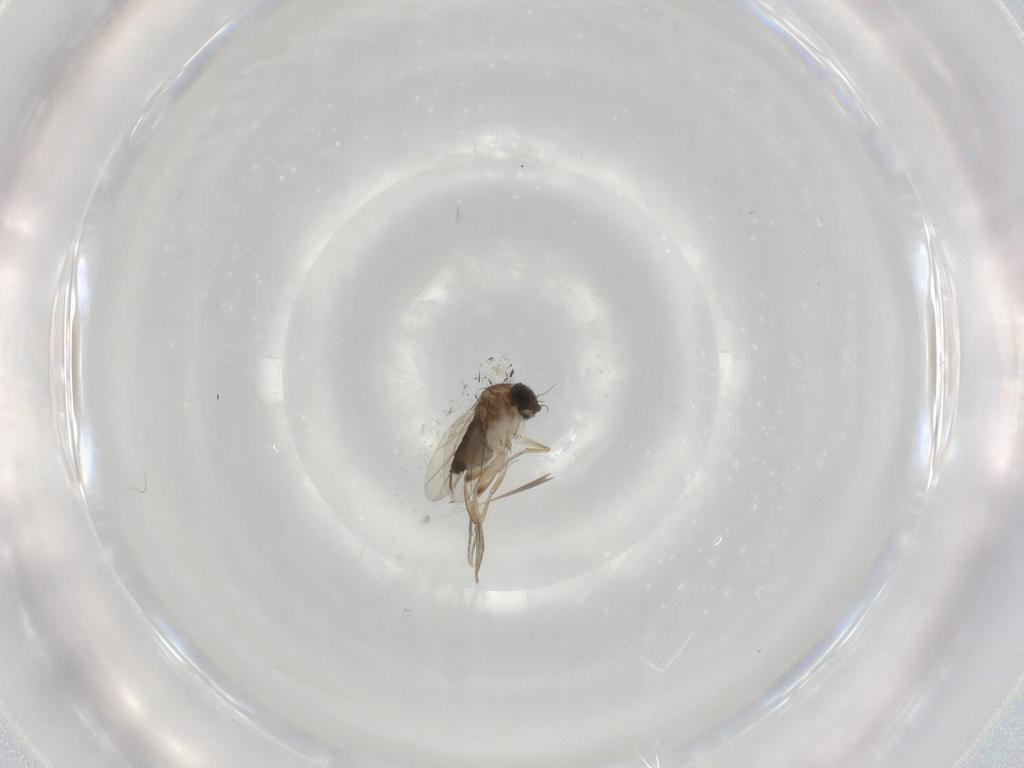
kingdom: Animalia
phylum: Arthropoda
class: Insecta
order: Diptera
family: Phoridae
